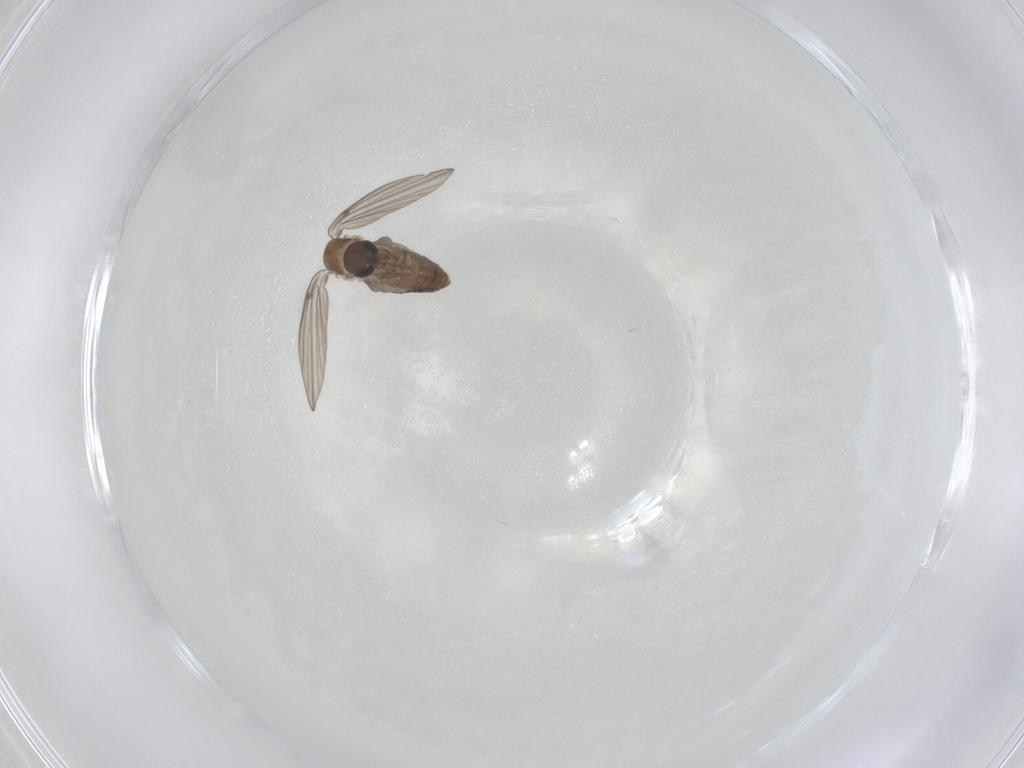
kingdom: Animalia
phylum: Arthropoda
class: Insecta
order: Diptera
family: Psychodidae
